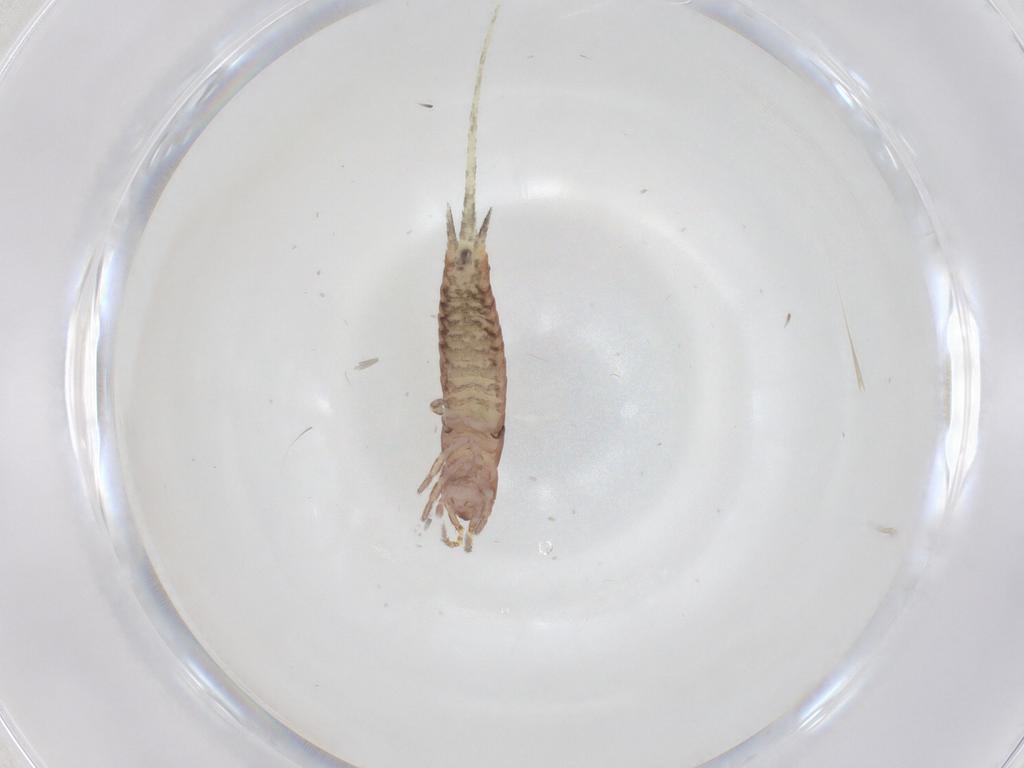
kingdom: Animalia
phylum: Arthropoda
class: Insecta
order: Archaeognatha
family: Machilidae
